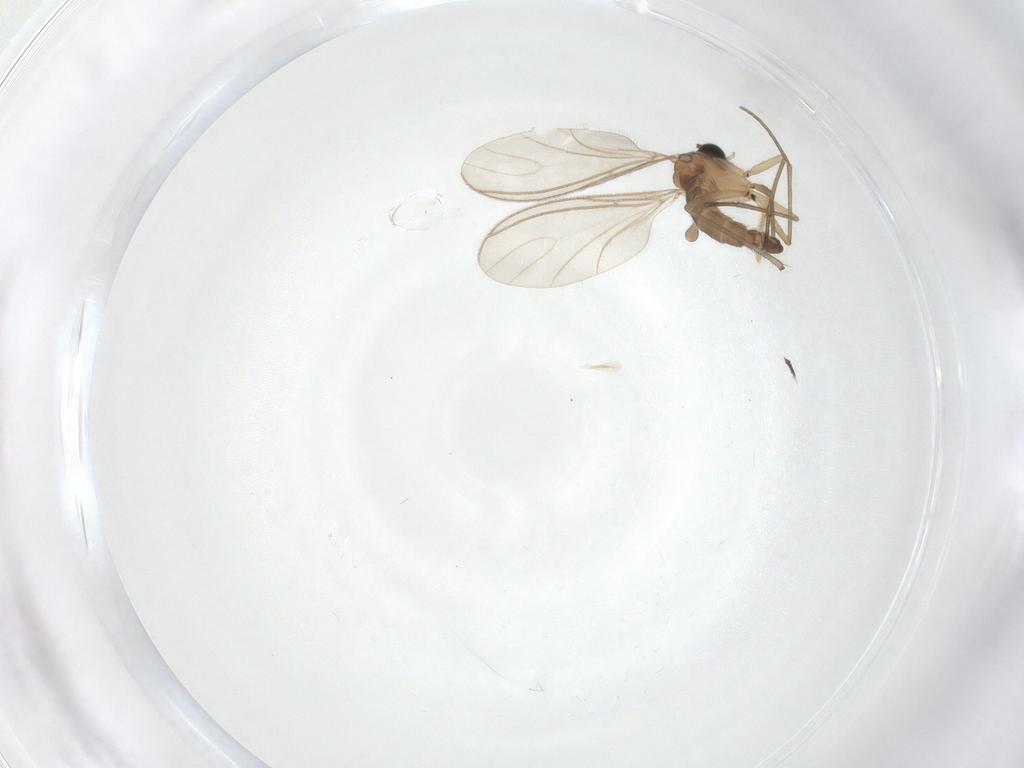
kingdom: Animalia
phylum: Arthropoda
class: Insecta
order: Diptera
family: Sciaridae
